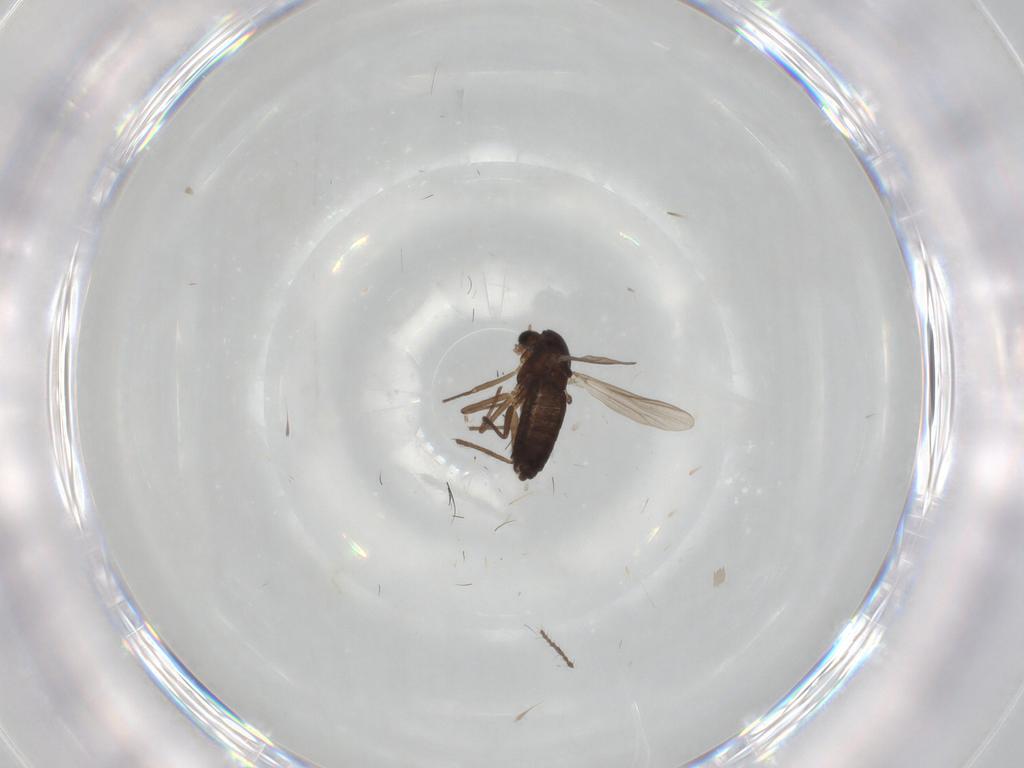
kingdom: Animalia
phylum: Arthropoda
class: Insecta
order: Diptera
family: Chironomidae
